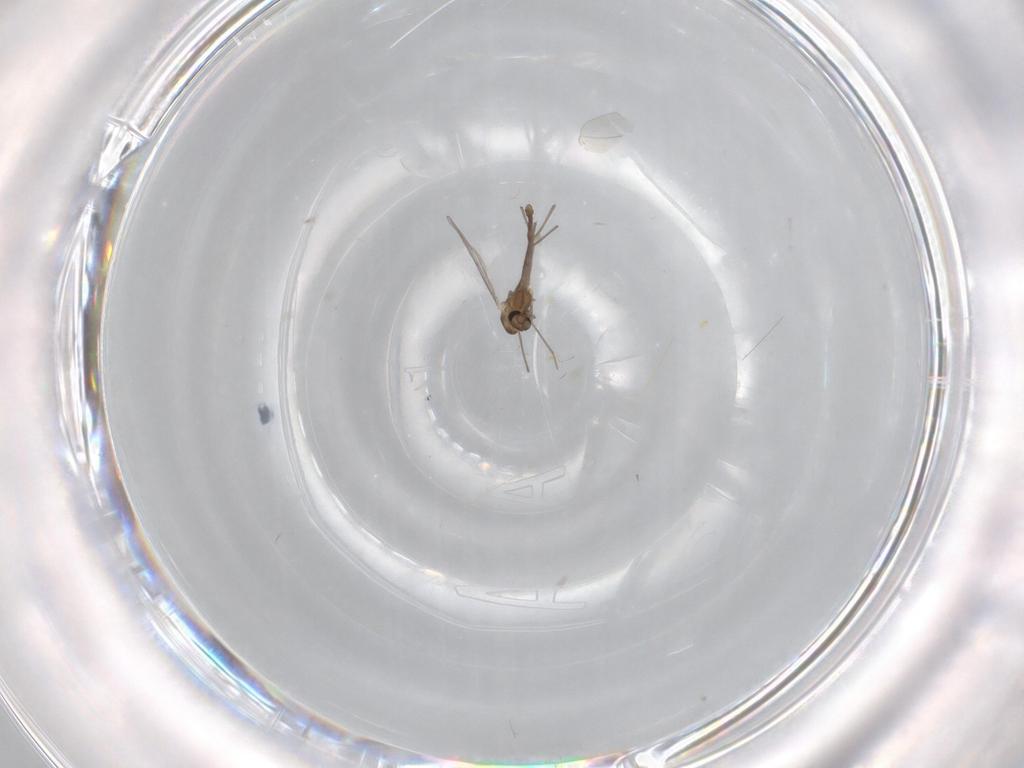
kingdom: Animalia
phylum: Arthropoda
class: Insecta
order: Diptera
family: Chironomidae
